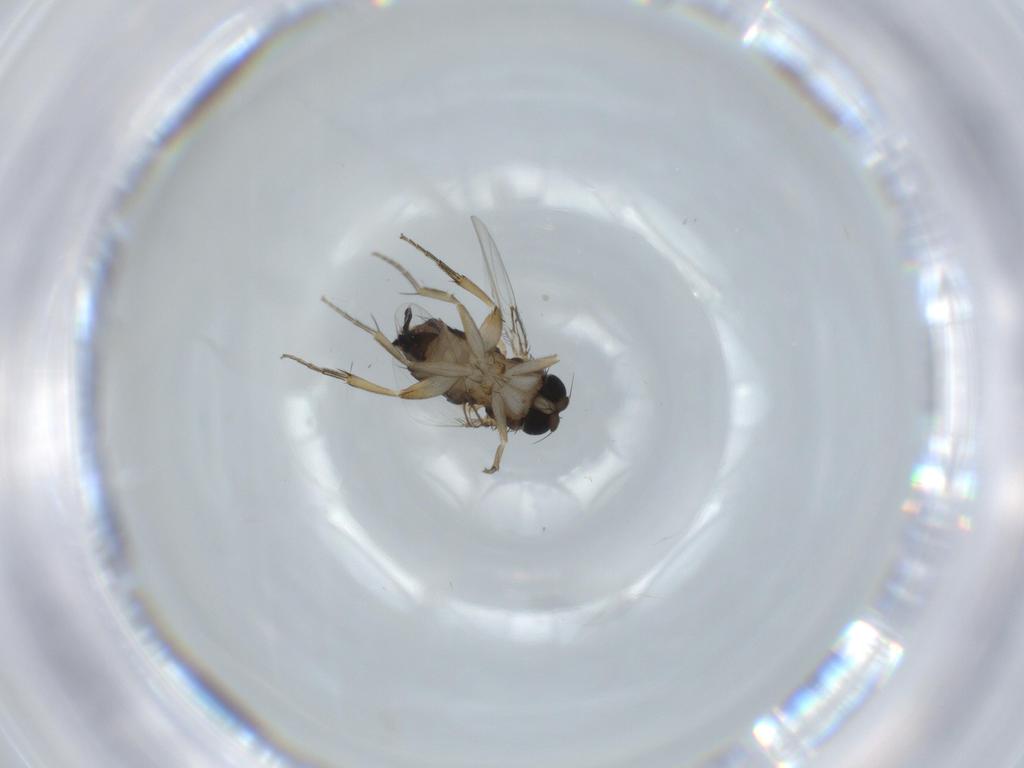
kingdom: Animalia
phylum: Arthropoda
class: Insecta
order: Diptera
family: Phoridae
